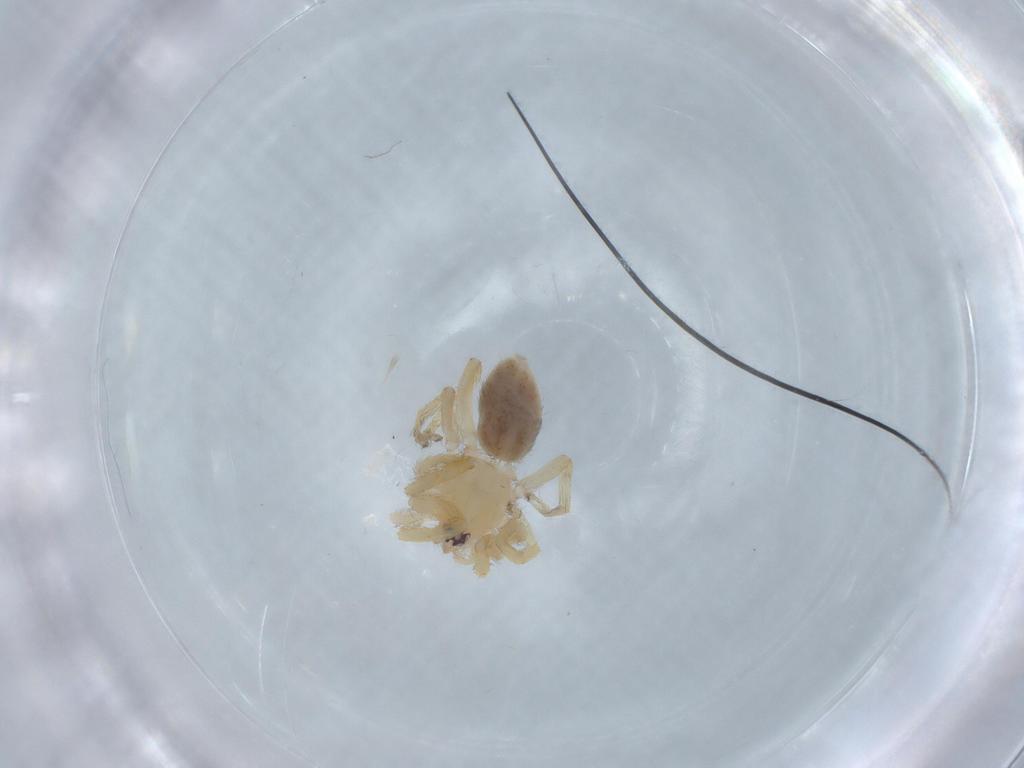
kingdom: Animalia
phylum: Arthropoda
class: Arachnida
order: Araneae
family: Oonopidae
